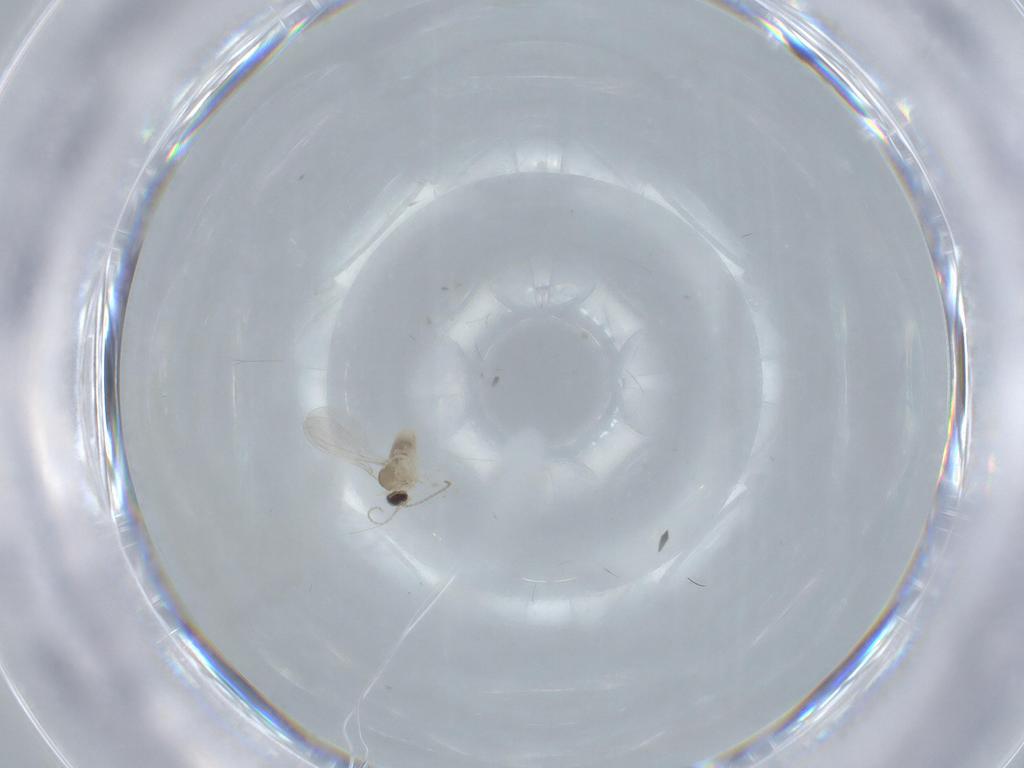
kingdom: Animalia
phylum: Arthropoda
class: Insecta
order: Diptera
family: Cecidomyiidae
